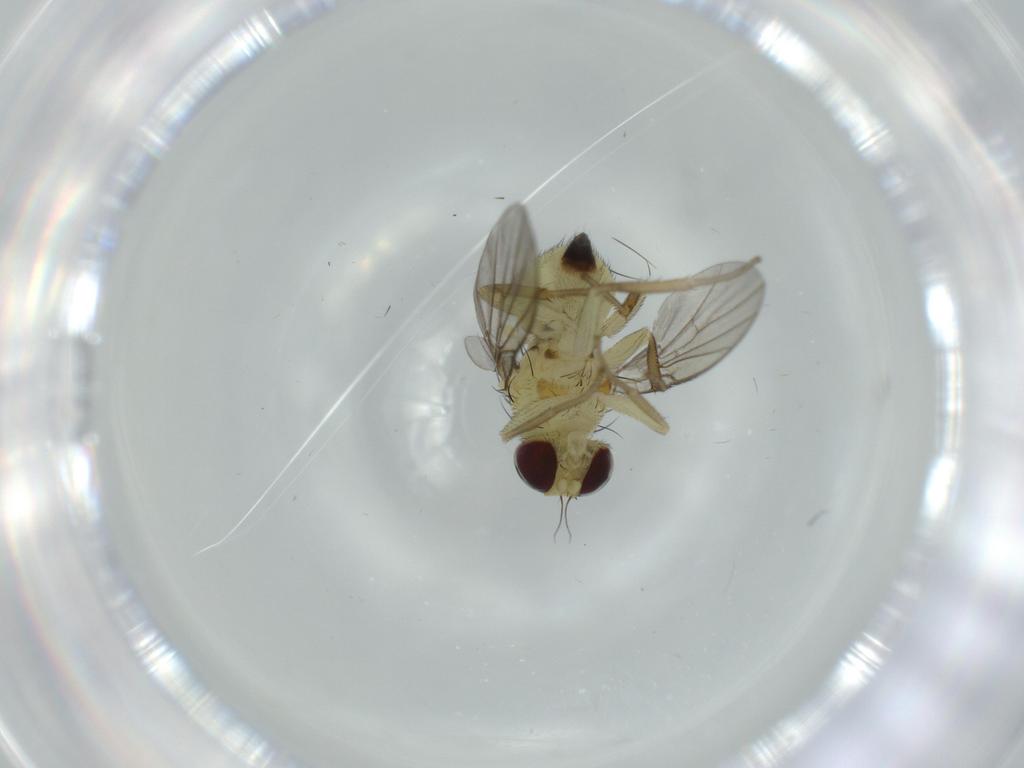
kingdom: Animalia
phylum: Arthropoda
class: Insecta
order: Diptera
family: Agromyzidae
